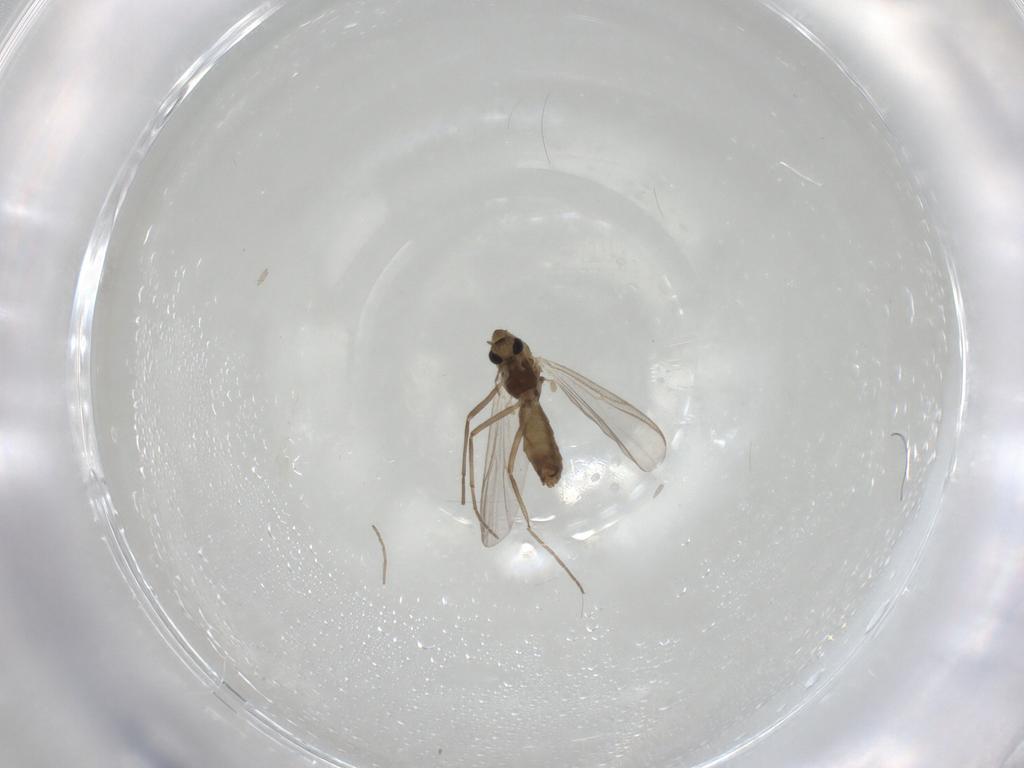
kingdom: Animalia
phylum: Arthropoda
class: Insecta
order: Diptera
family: Chironomidae
